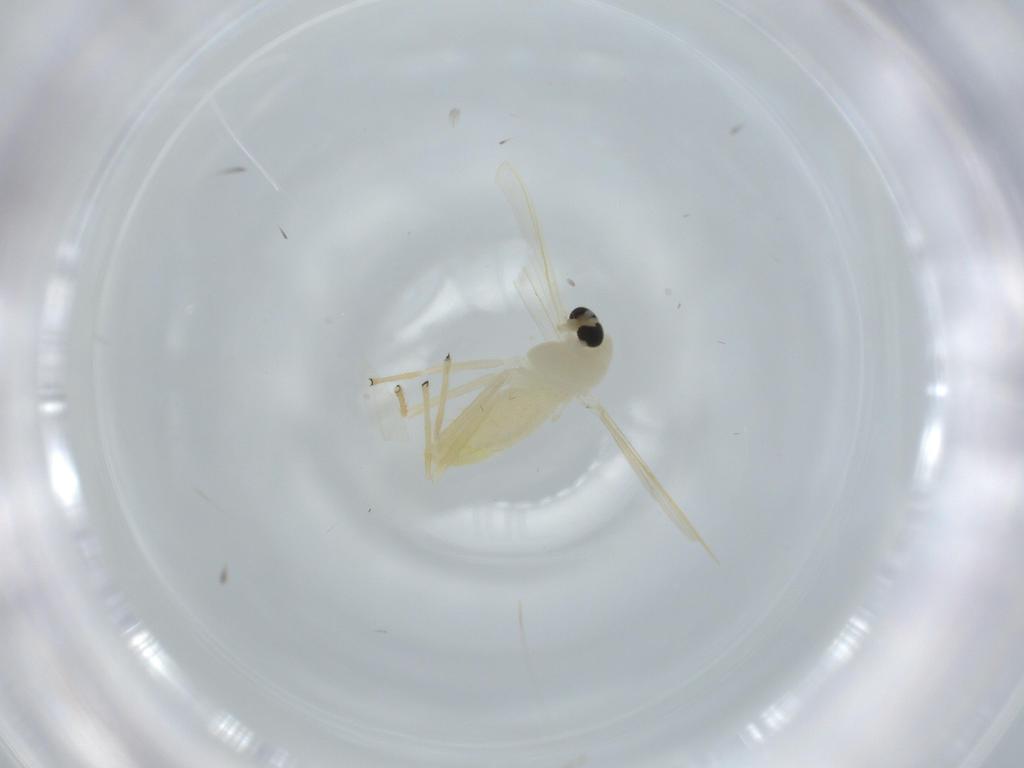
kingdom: Animalia
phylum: Arthropoda
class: Insecta
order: Diptera
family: Chironomidae
